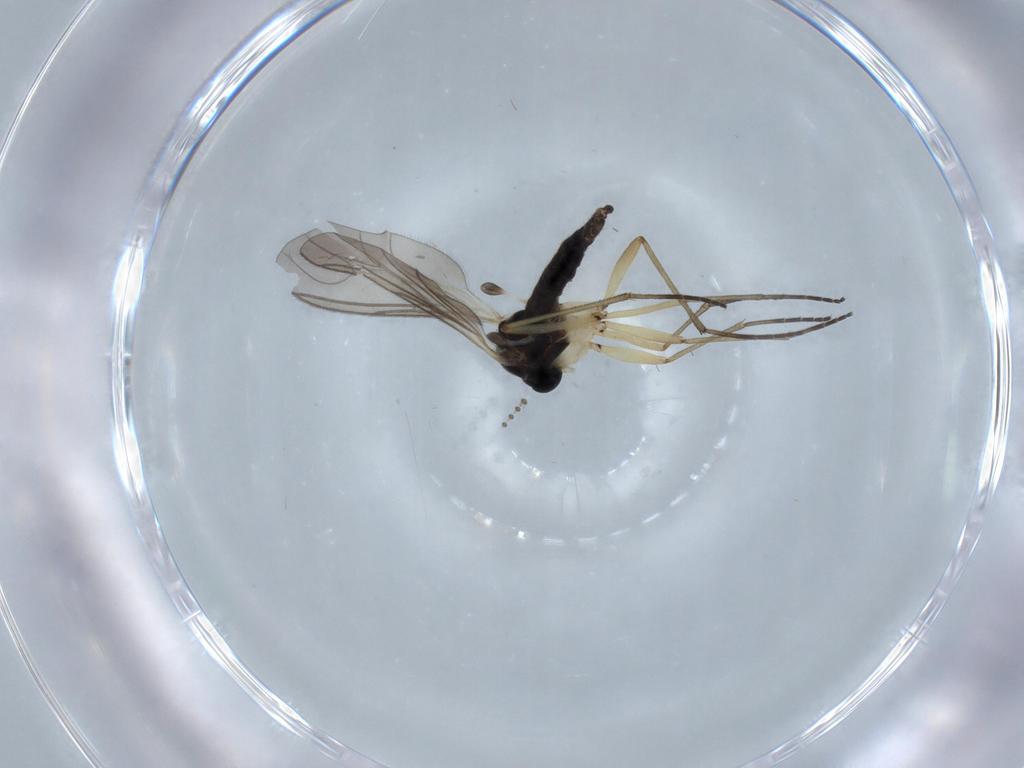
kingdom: Animalia
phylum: Arthropoda
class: Insecta
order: Diptera
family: Sciaridae
